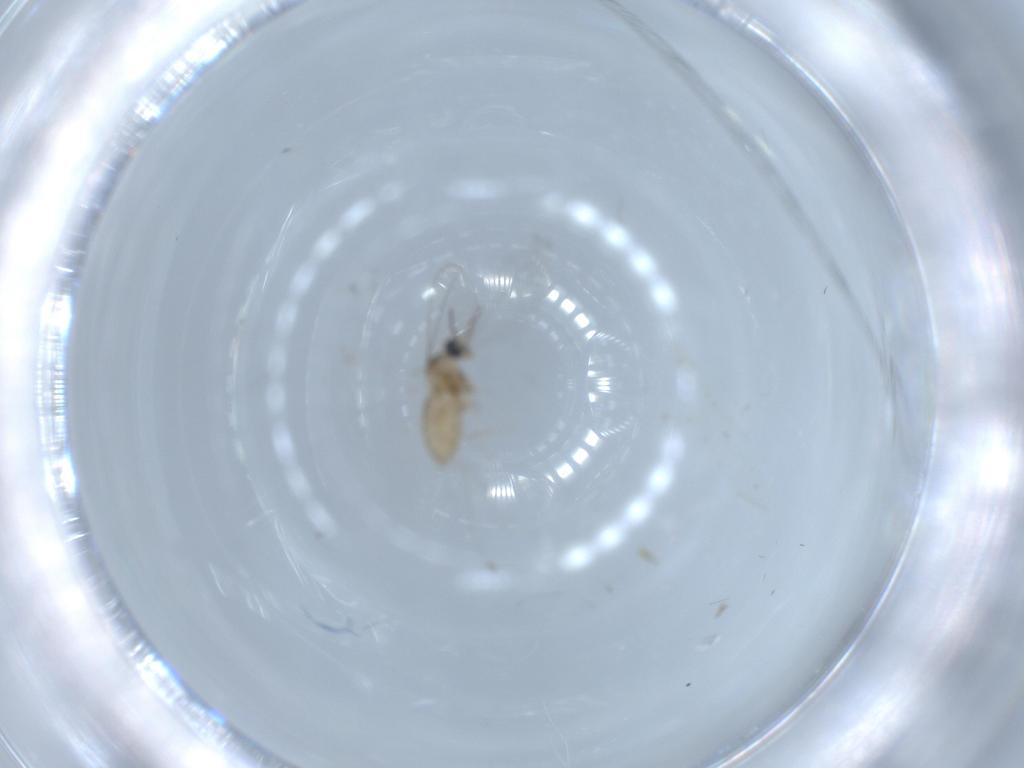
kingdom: Animalia
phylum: Arthropoda
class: Insecta
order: Diptera
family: Cecidomyiidae
